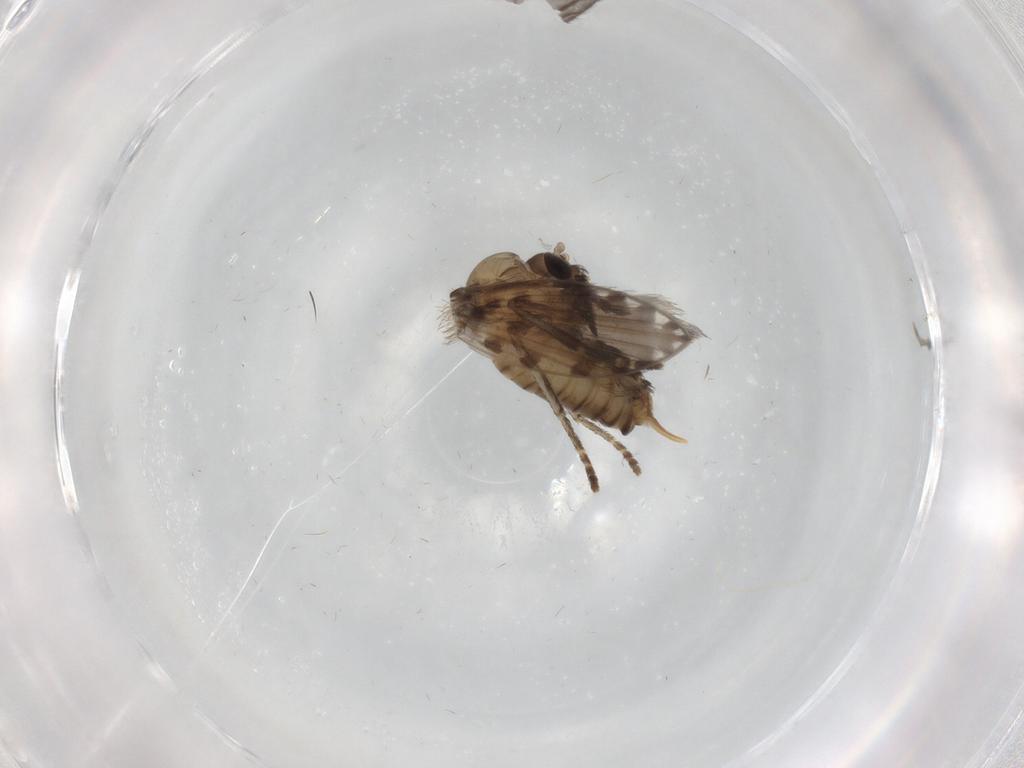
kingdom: Animalia
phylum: Arthropoda
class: Insecta
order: Diptera
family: Psychodidae
